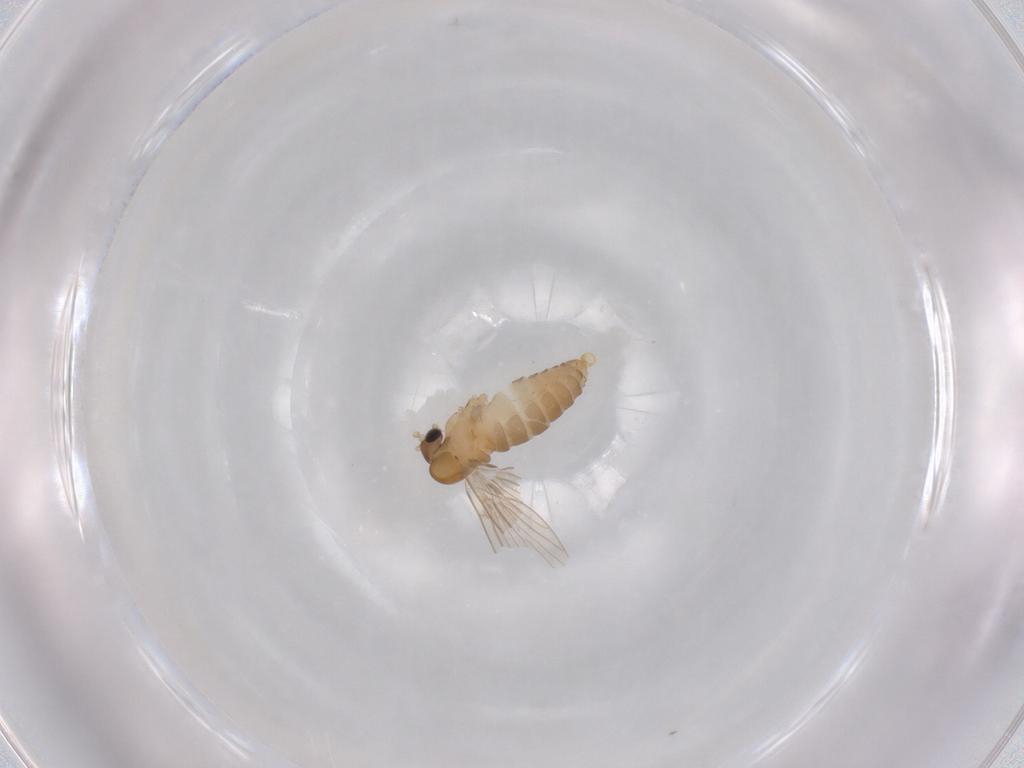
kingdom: Animalia
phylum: Arthropoda
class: Insecta
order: Diptera
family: Psychodidae
